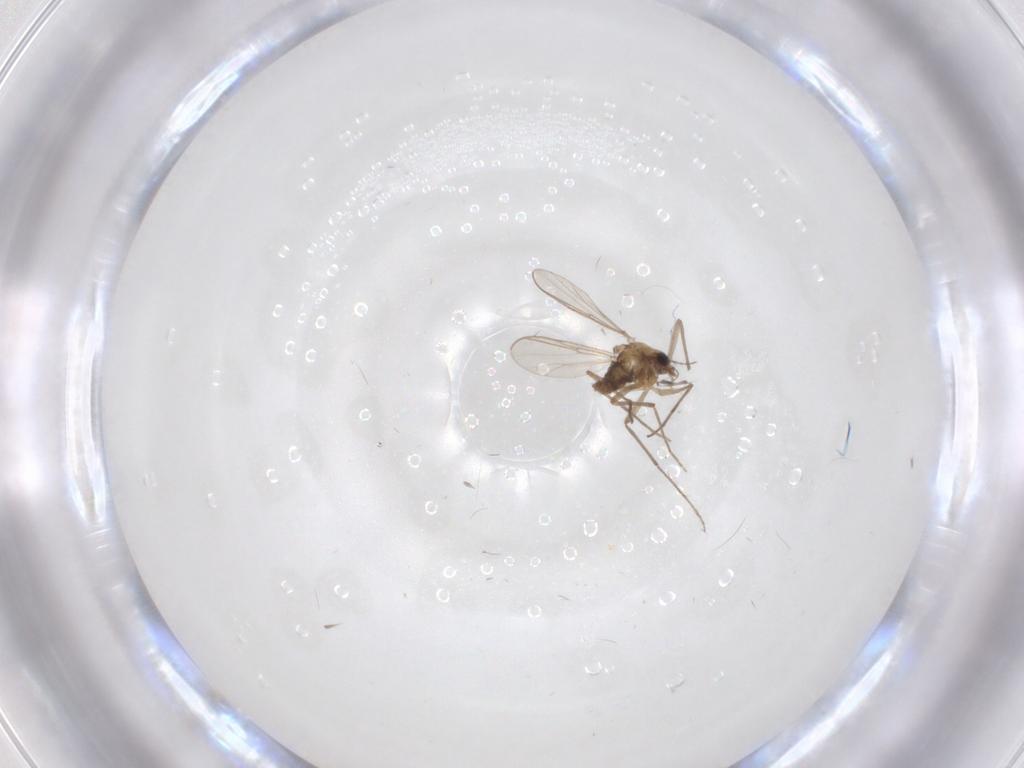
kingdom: Animalia
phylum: Arthropoda
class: Insecta
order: Diptera
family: Chironomidae
